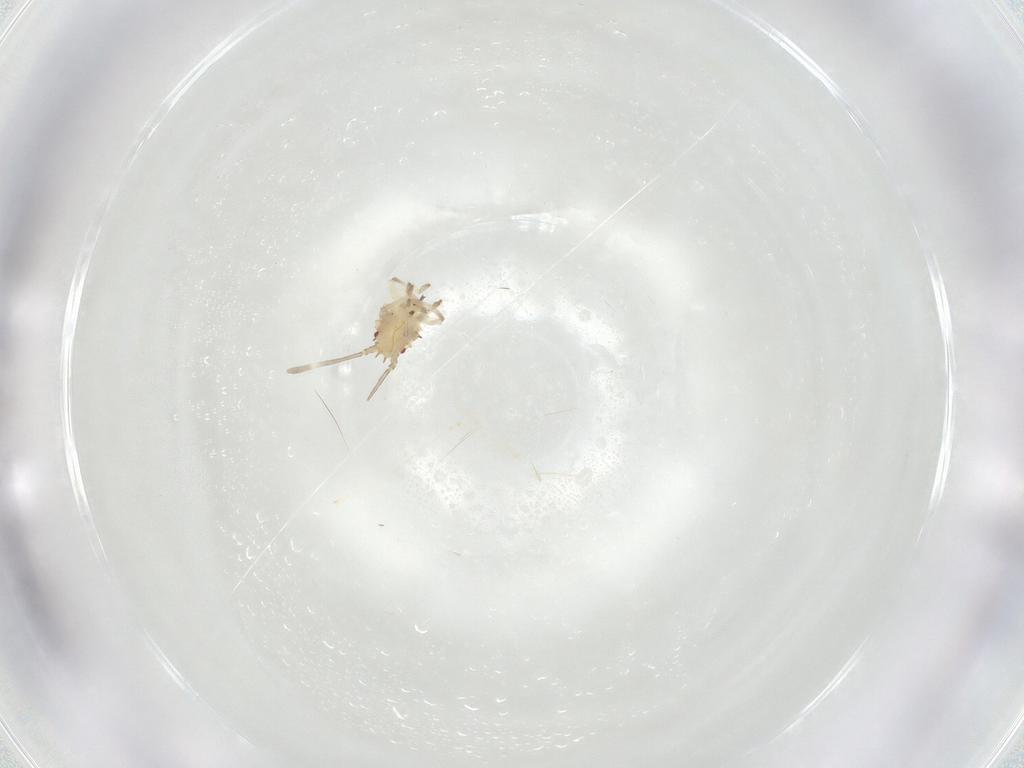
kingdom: Animalia
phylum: Arthropoda
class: Insecta
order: Hemiptera
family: Tingidae
